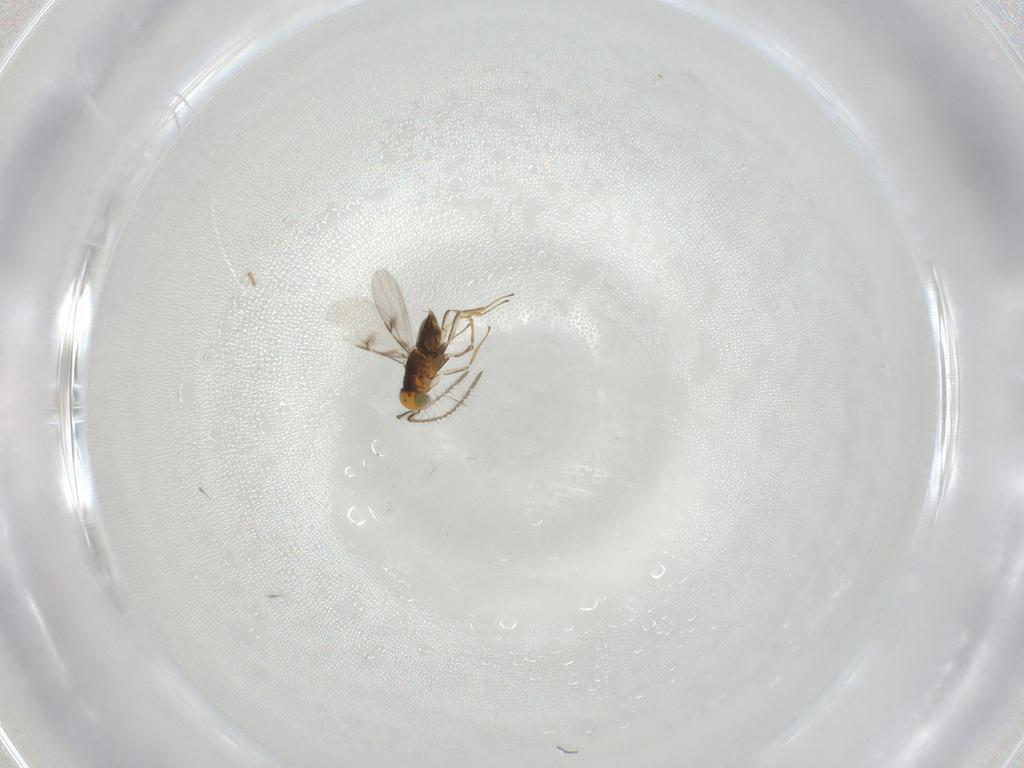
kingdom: Animalia
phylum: Arthropoda
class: Insecta
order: Hymenoptera
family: Encyrtidae
